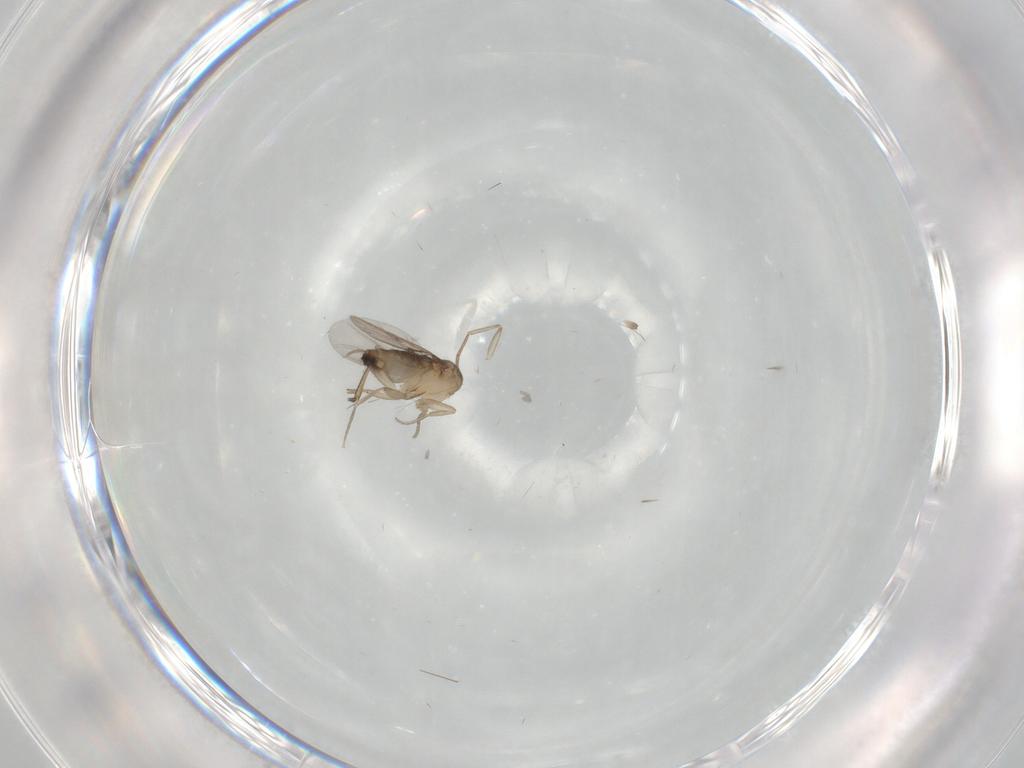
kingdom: Animalia
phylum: Arthropoda
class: Insecta
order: Diptera
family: Phoridae
